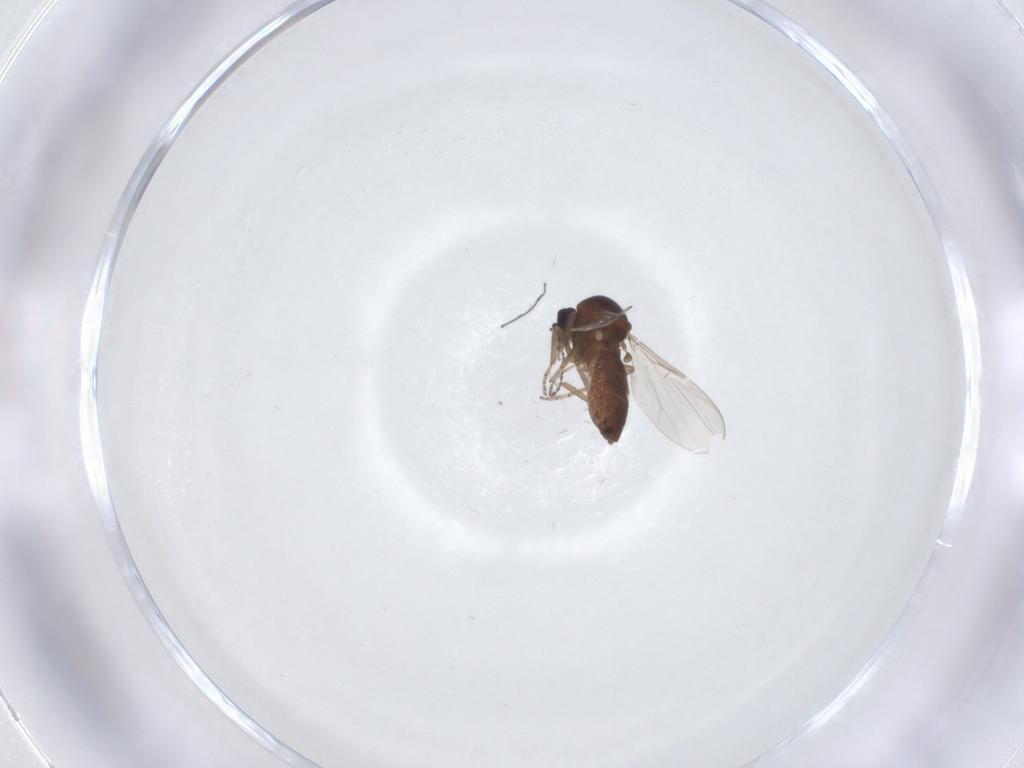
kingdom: Animalia
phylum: Arthropoda
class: Insecta
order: Diptera
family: Ceratopogonidae
